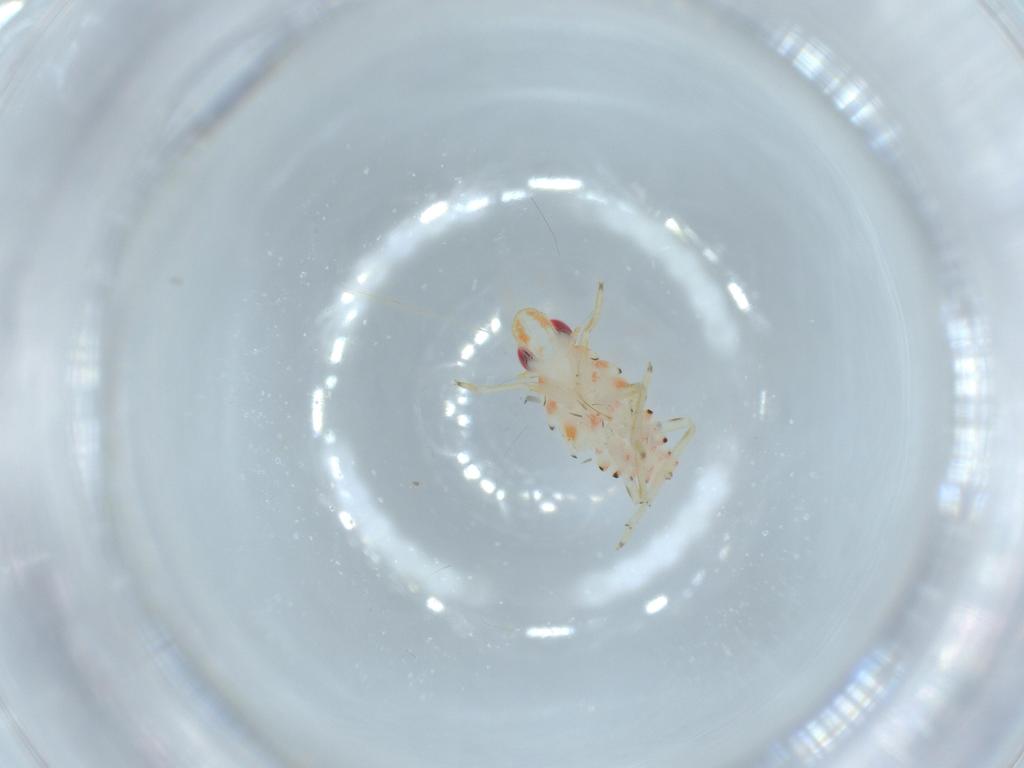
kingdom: Animalia
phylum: Arthropoda
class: Insecta
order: Hemiptera
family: Tropiduchidae
